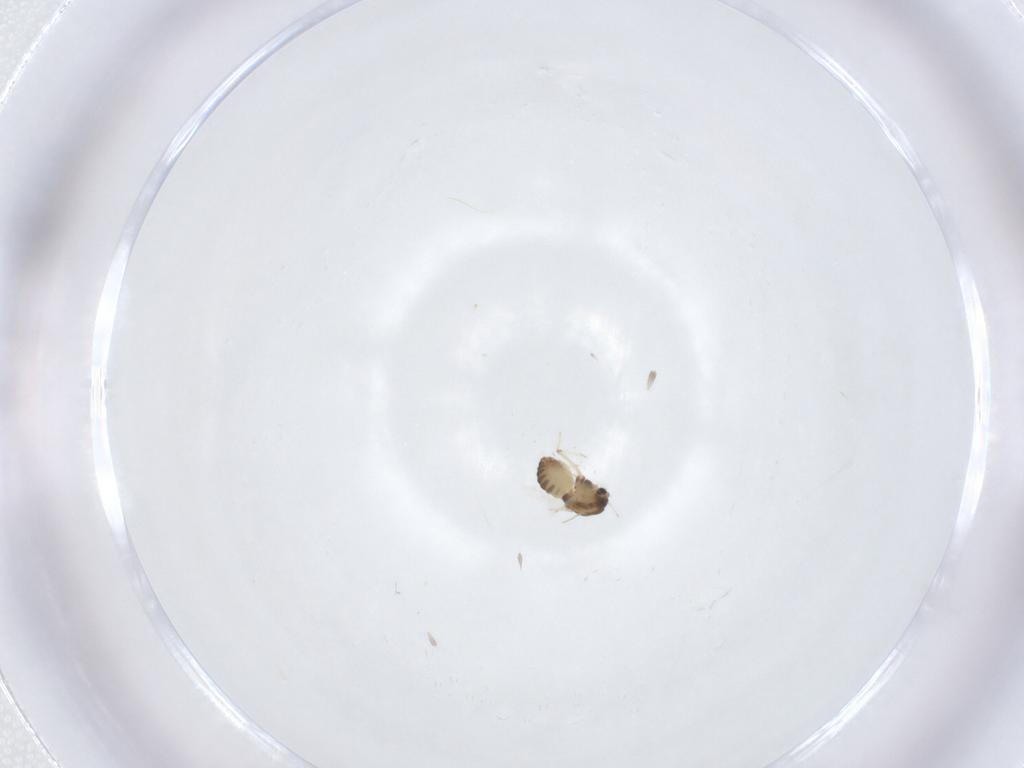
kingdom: Animalia
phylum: Arthropoda
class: Insecta
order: Diptera
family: Chironomidae
